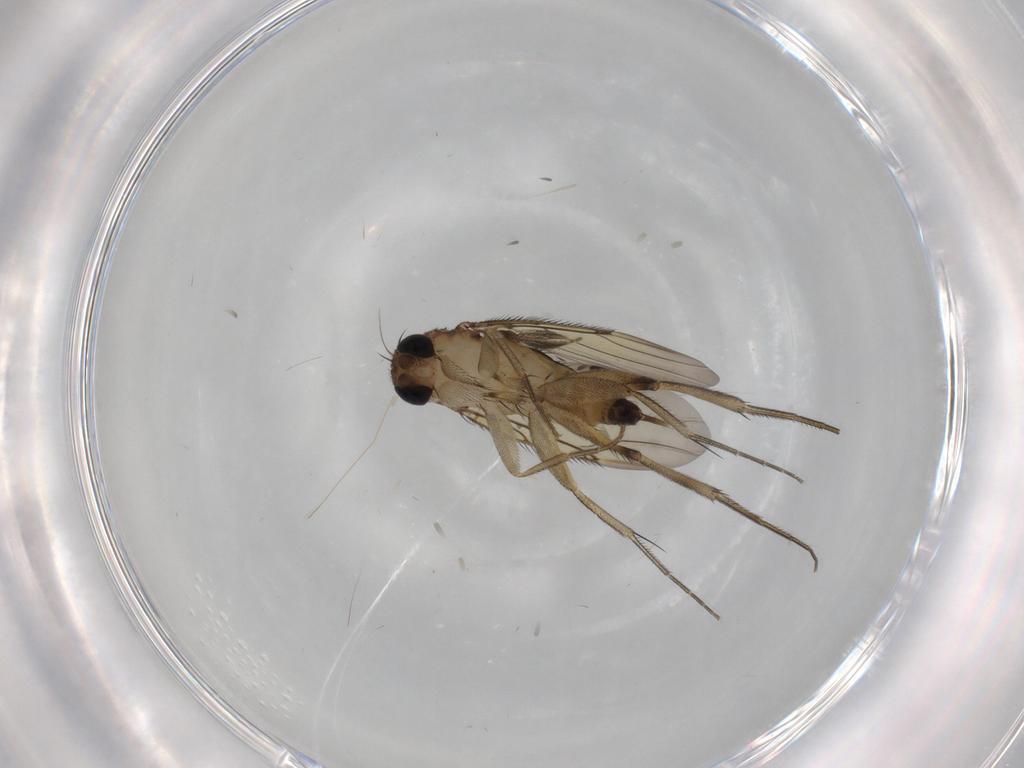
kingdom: Animalia
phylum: Arthropoda
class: Insecta
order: Diptera
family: Phoridae
